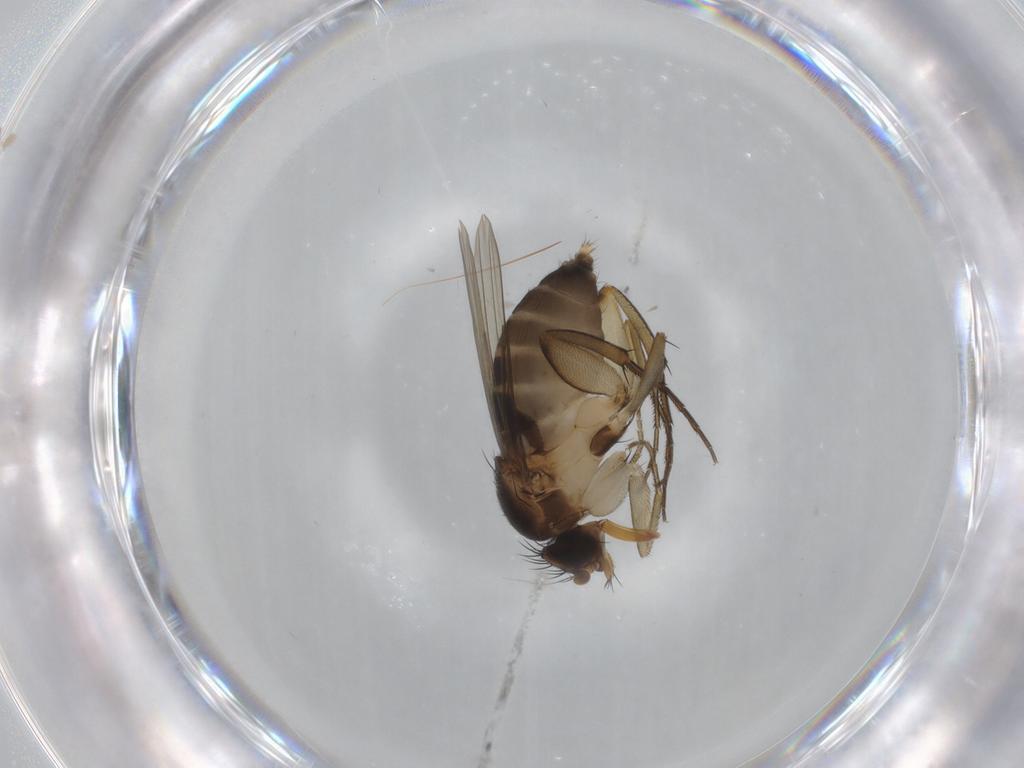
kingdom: Animalia
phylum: Arthropoda
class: Insecta
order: Diptera
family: Phoridae
